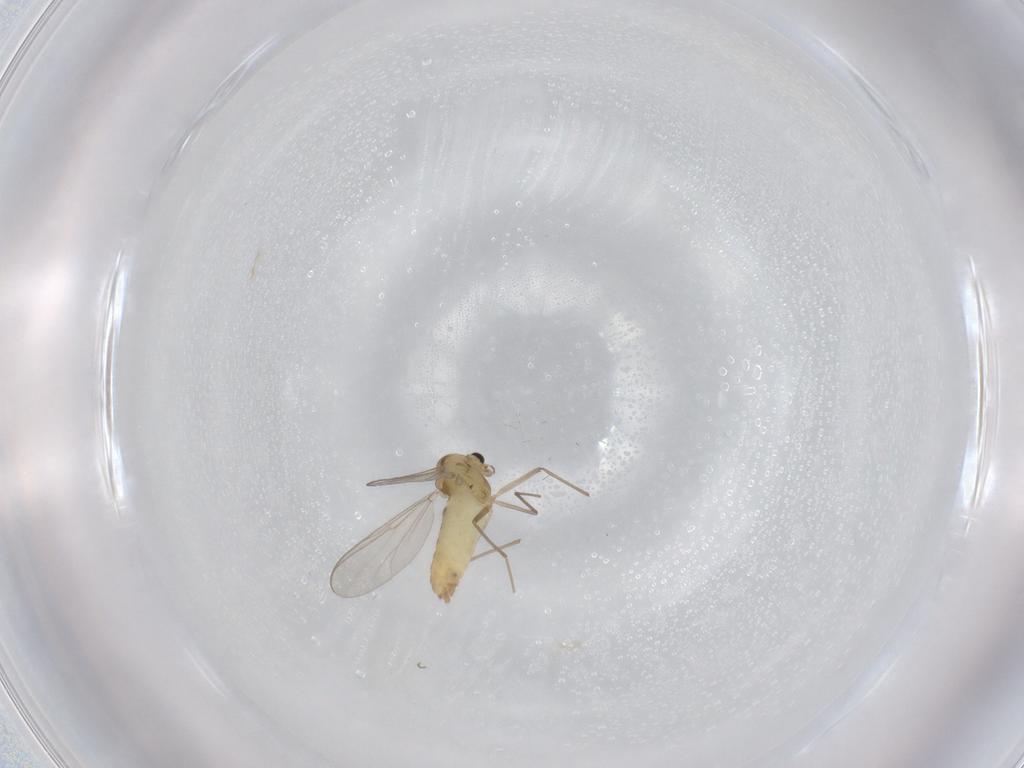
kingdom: Animalia
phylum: Arthropoda
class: Insecta
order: Diptera
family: Chironomidae
